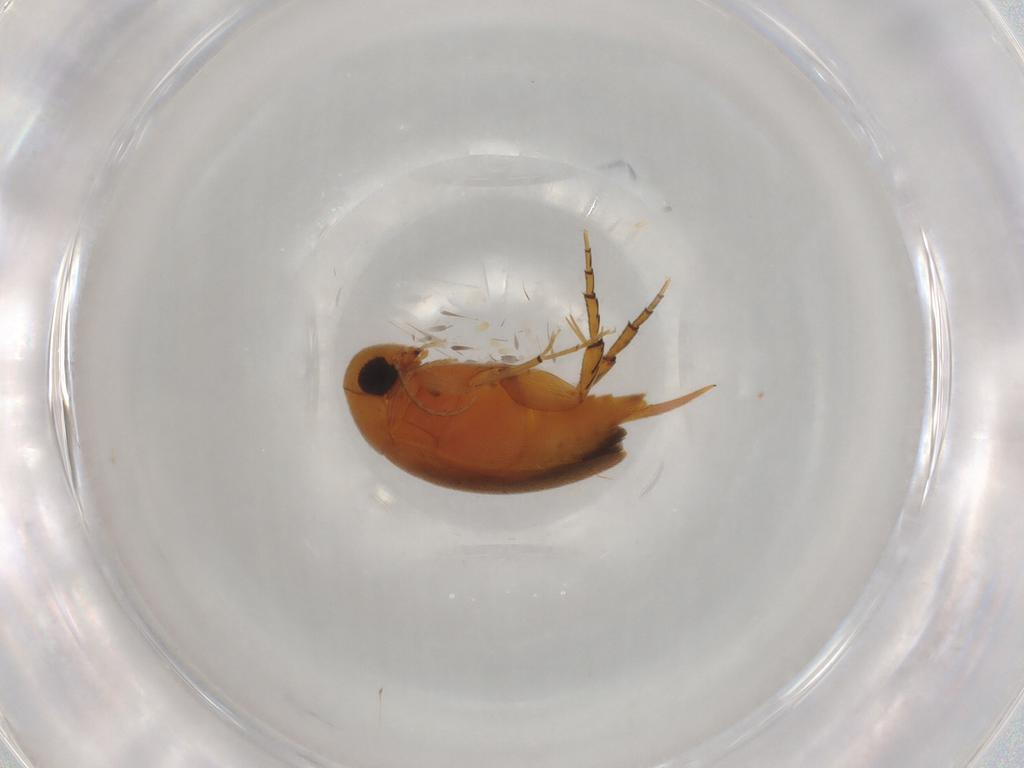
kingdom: Animalia
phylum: Arthropoda
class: Insecta
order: Coleoptera
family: Mordellidae
